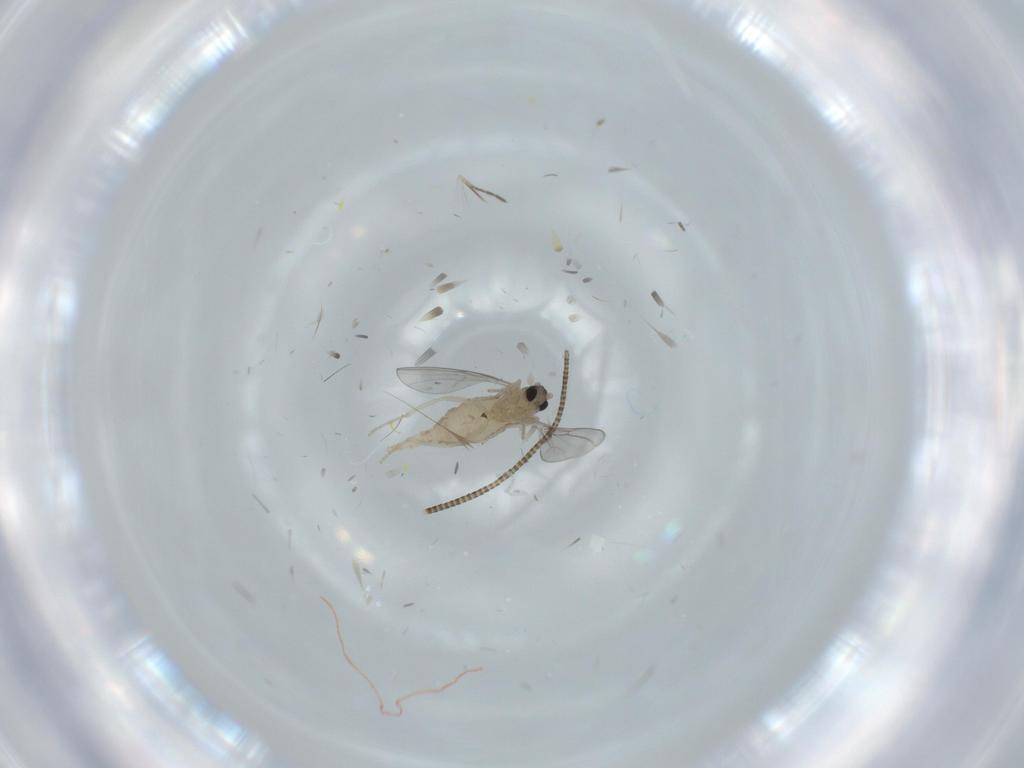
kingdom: Animalia
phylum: Arthropoda
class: Insecta
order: Diptera
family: Cecidomyiidae
